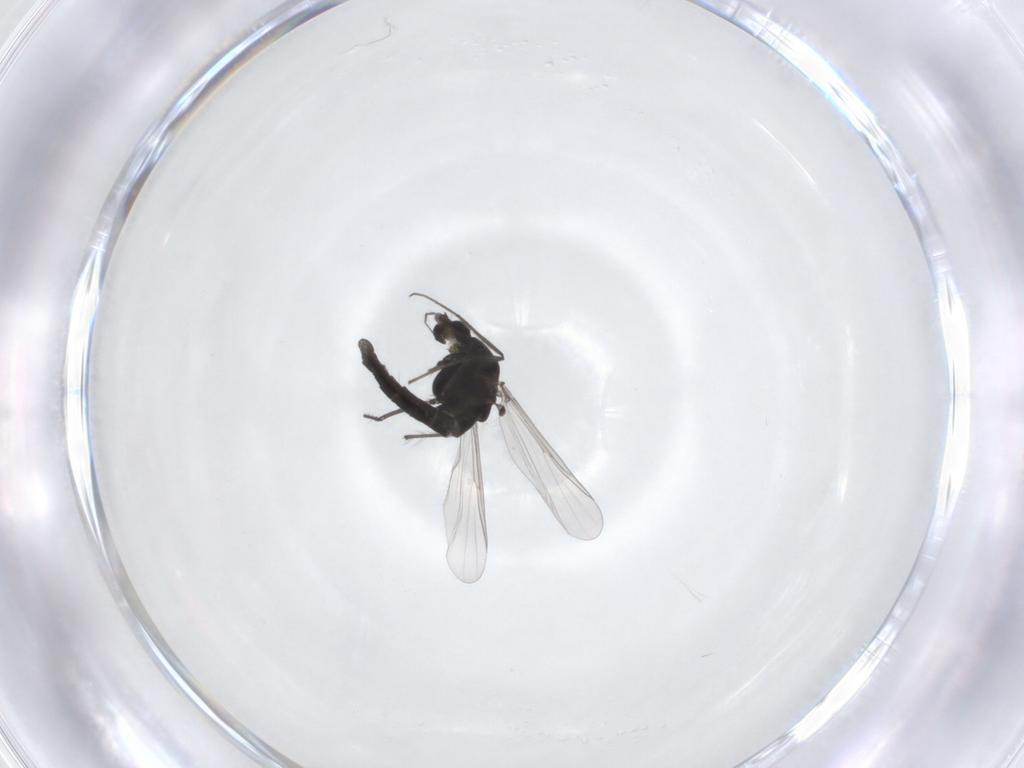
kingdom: Animalia
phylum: Arthropoda
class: Insecta
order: Diptera
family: Chironomidae
